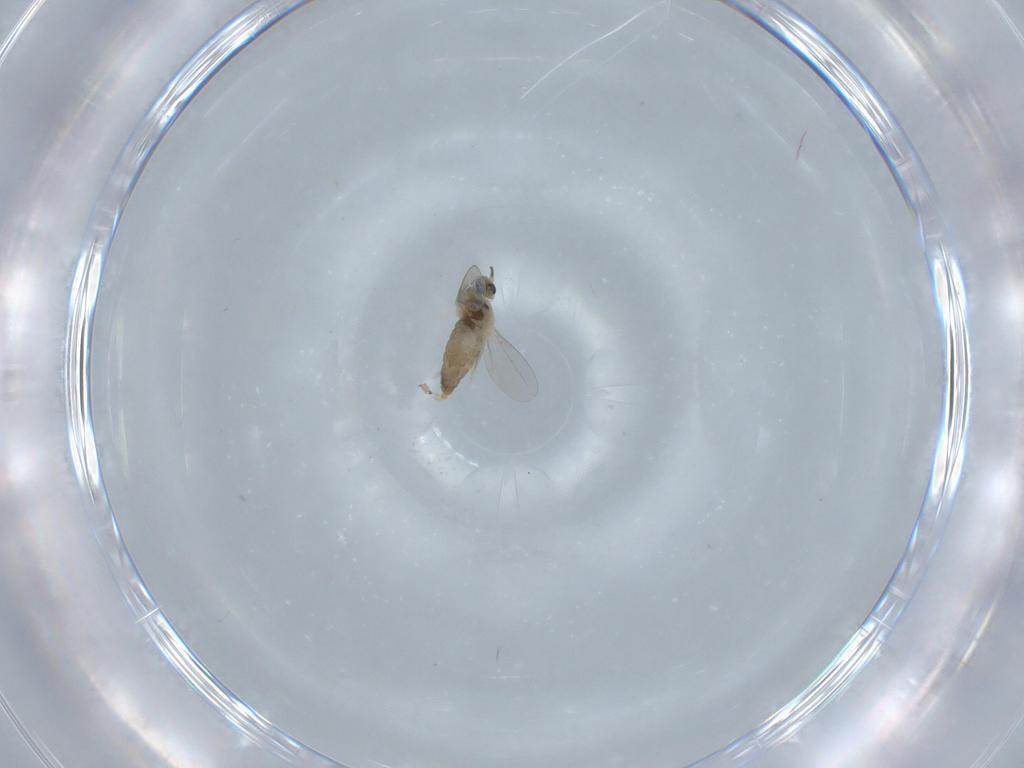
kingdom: Animalia
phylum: Arthropoda
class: Insecta
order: Diptera
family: Cecidomyiidae
